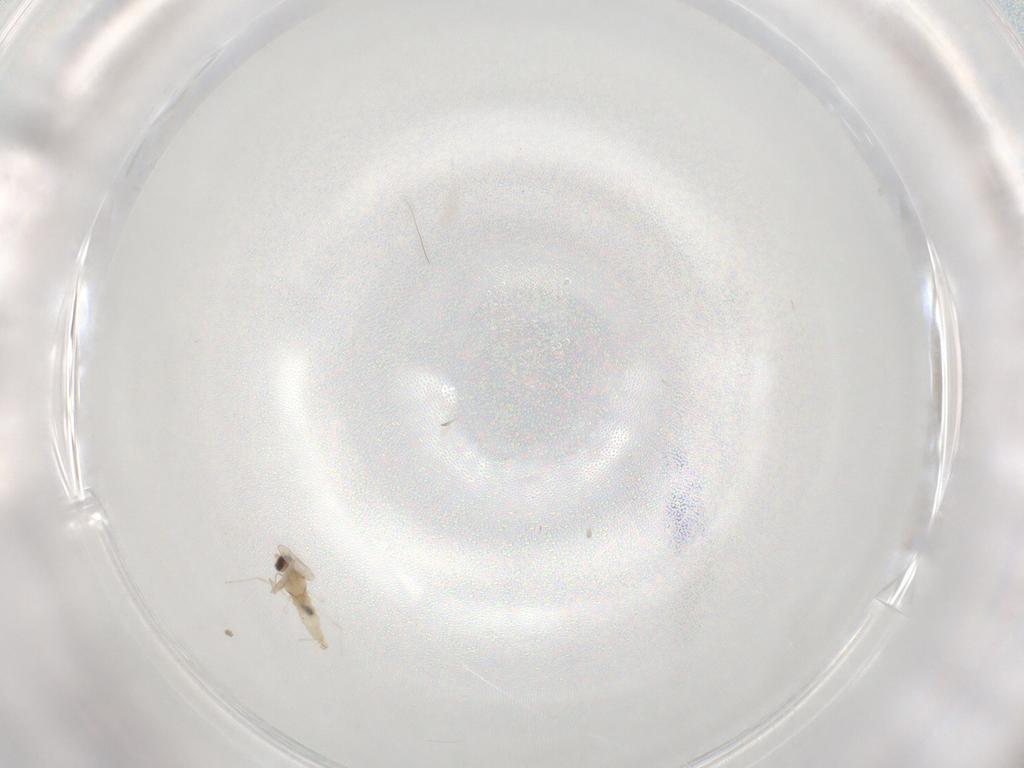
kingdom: Animalia
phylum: Arthropoda
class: Insecta
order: Diptera
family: Cecidomyiidae
